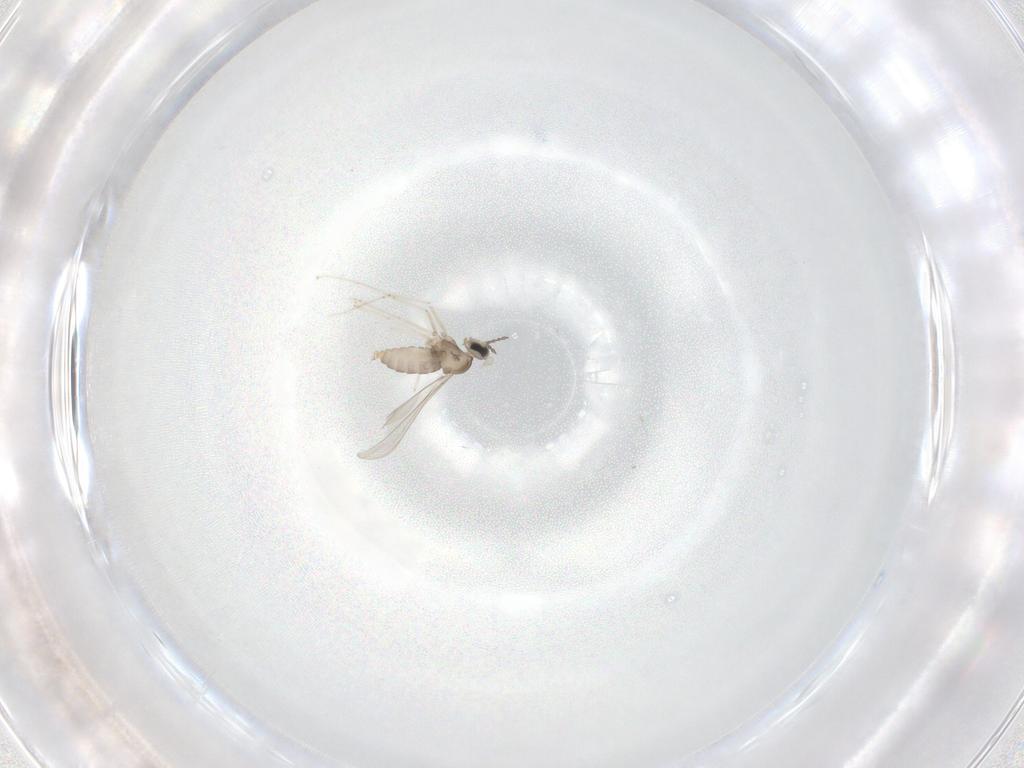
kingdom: Animalia
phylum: Arthropoda
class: Insecta
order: Diptera
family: Cecidomyiidae
